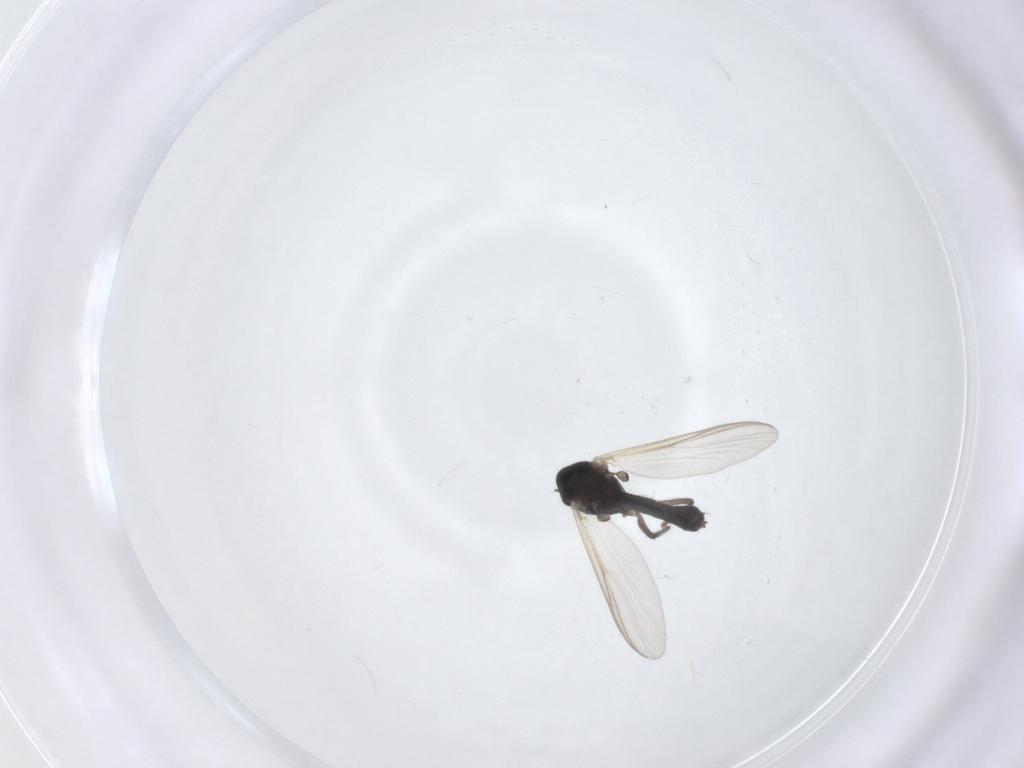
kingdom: Animalia
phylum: Arthropoda
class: Insecta
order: Diptera
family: Chironomidae
